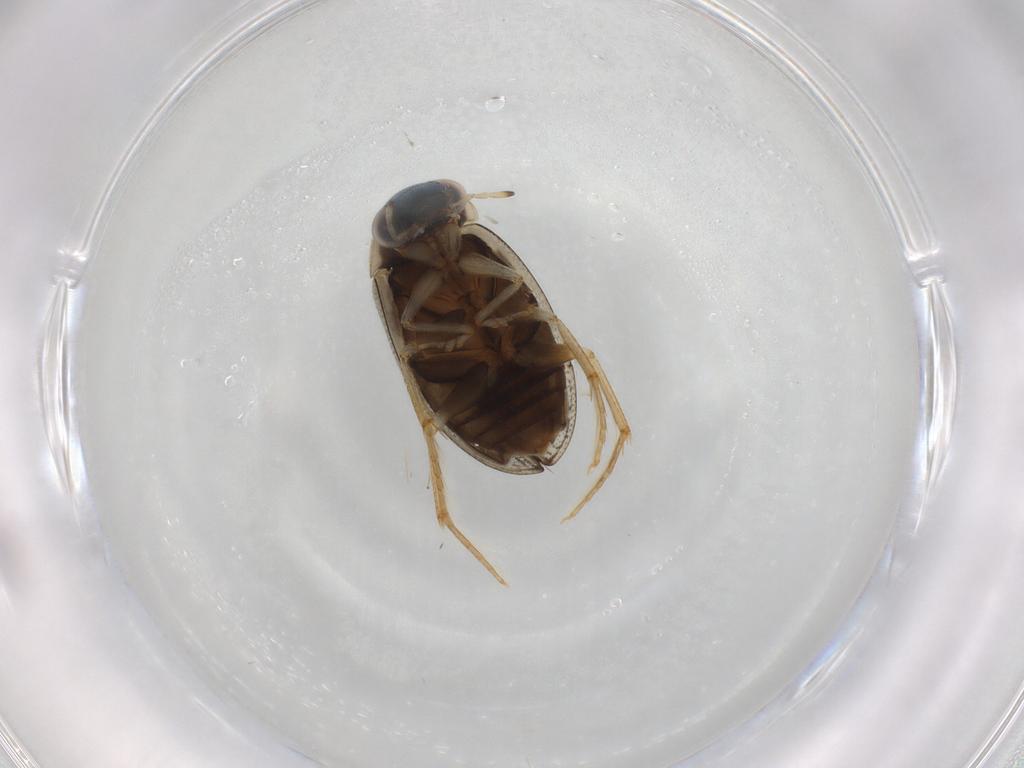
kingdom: Animalia
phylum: Arthropoda
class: Insecta
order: Coleoptera
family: Hydrophilidae
